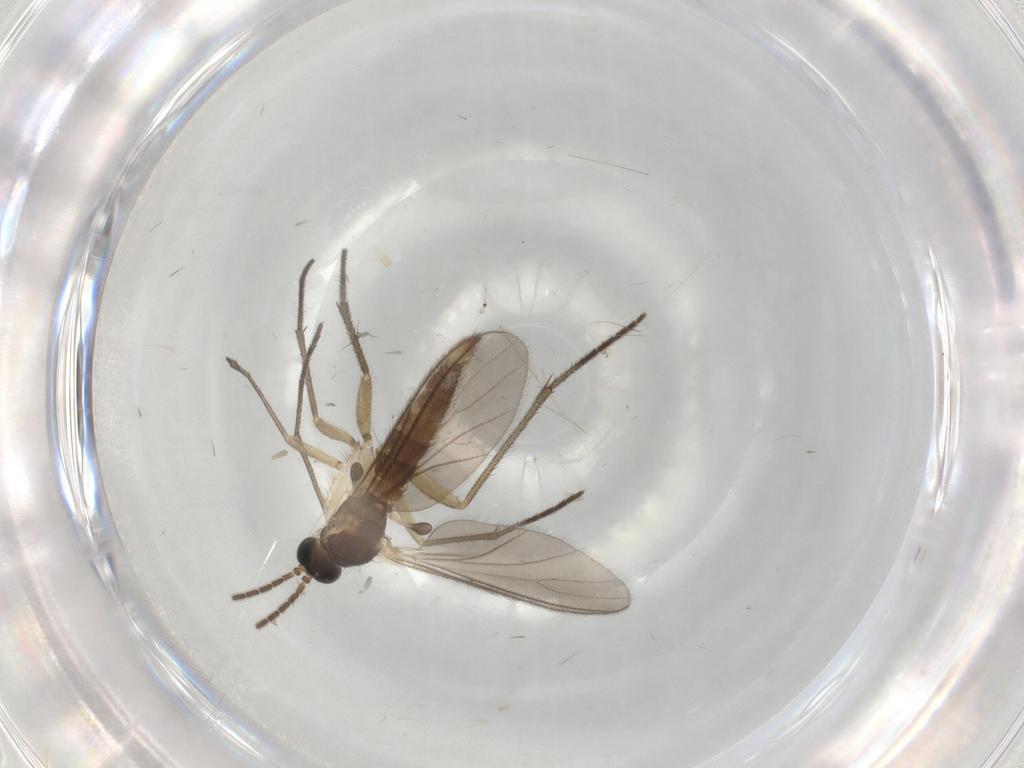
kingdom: Animalia
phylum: Arthropoda
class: Insecta
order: Diptera
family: Sciaridae
